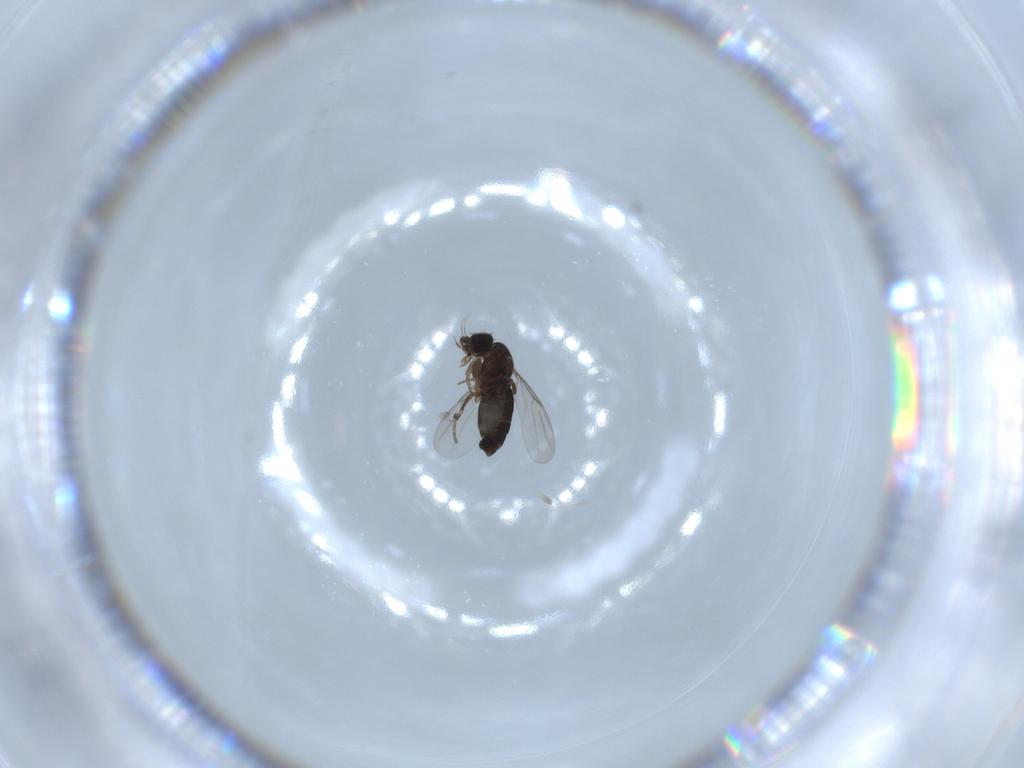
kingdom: Animalia
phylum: Arthropoda
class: Insecta
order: Diptera
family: Phoridae
